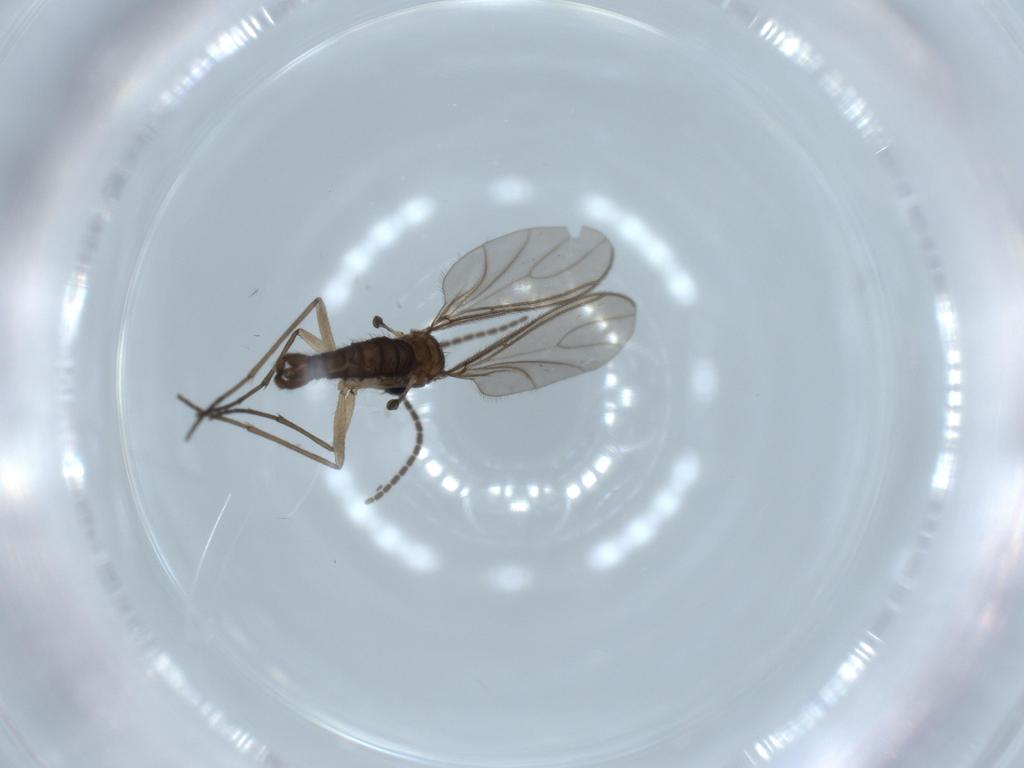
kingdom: Animalia
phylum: Arthropoda
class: Insecta
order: Diptera
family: Sciaridae
